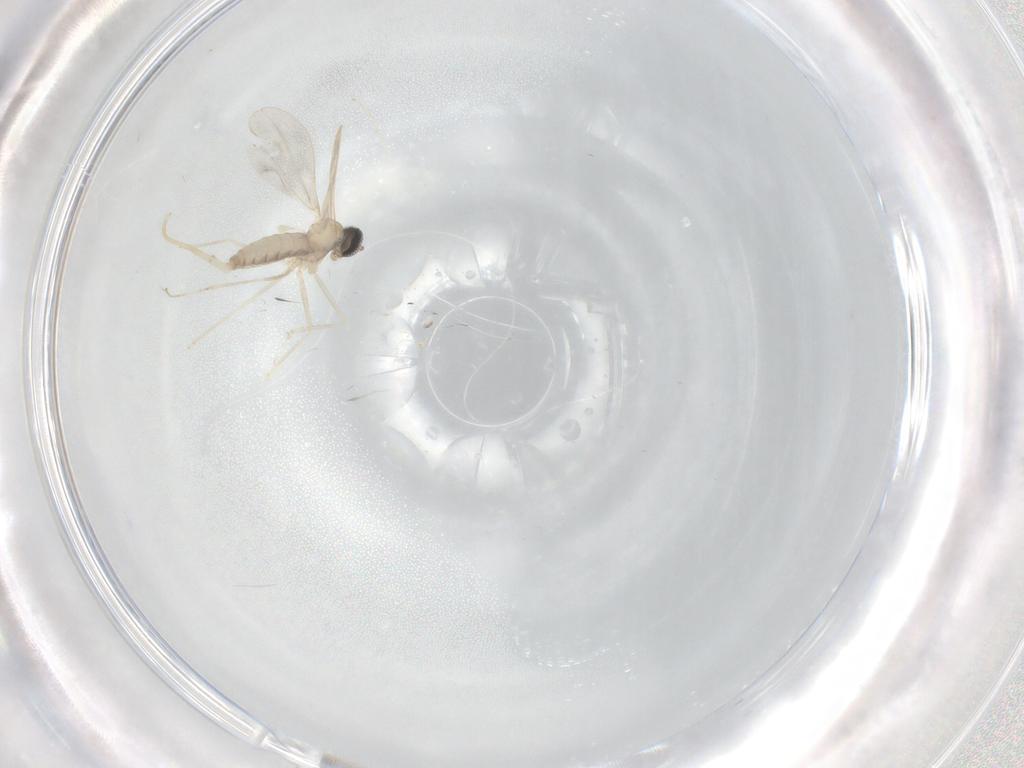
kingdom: Animalia
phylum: Arthropoda
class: Insecta
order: Diptera
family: Cecidomyiidae
